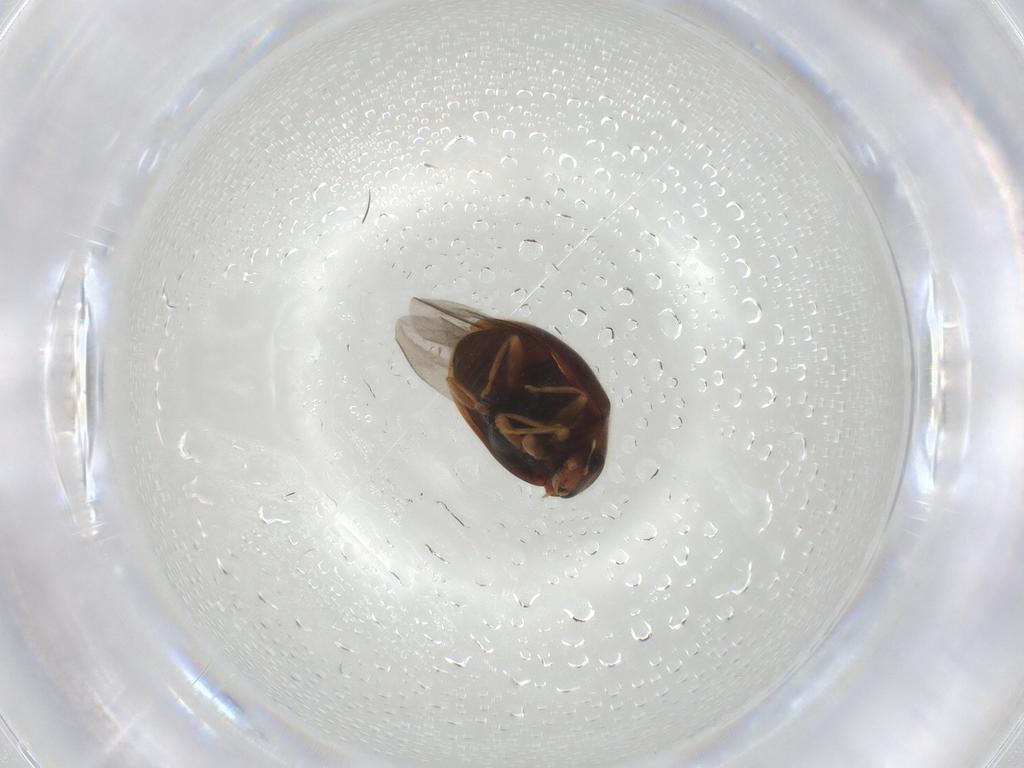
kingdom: Animalia
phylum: Arthropoda
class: Insecta
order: Coleoptera
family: Coccinellidae
